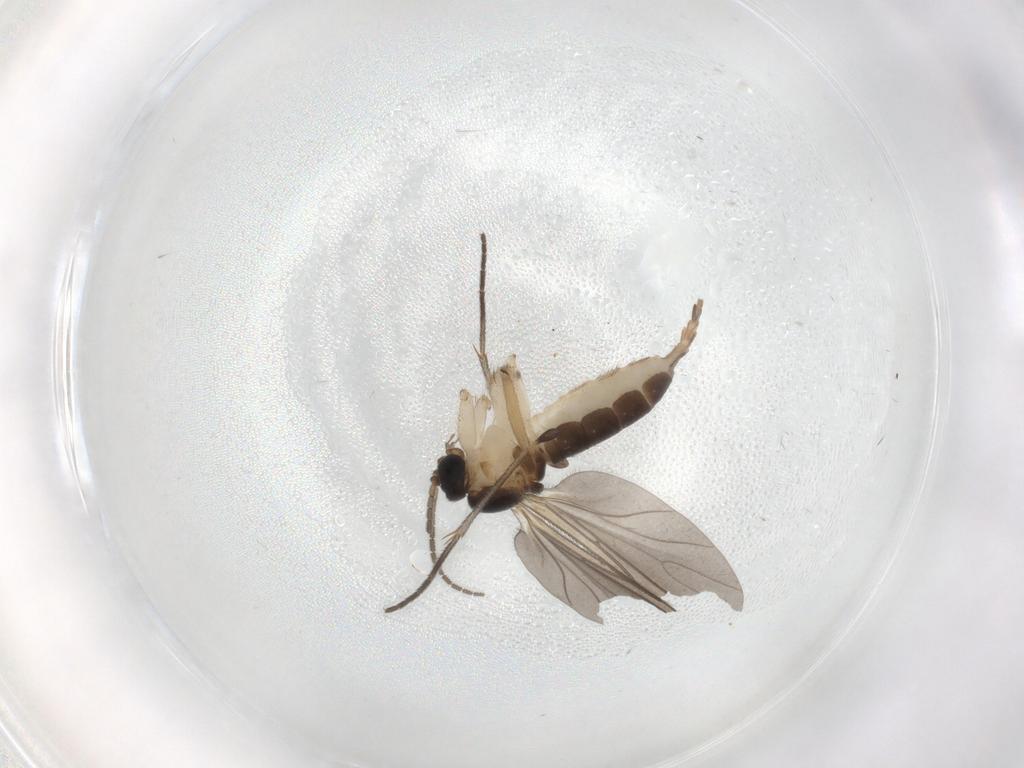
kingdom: Animalia
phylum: Arthropoda
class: Insecta
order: Diptera
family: Sciaridae
